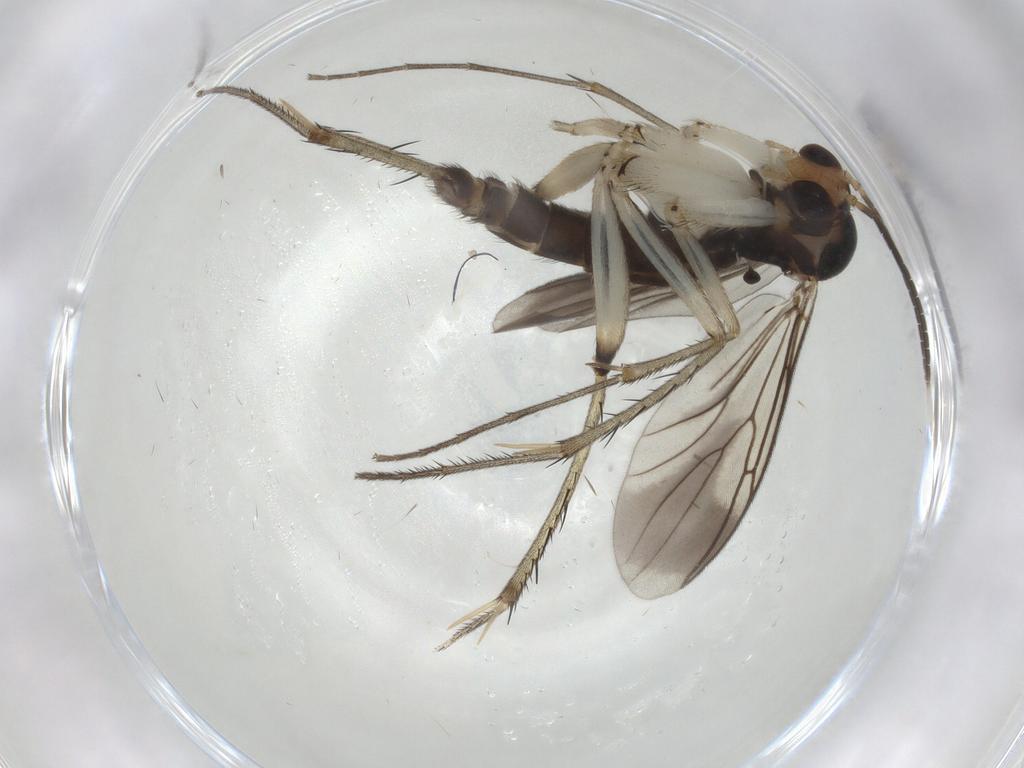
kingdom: Animalia
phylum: Arthropoda
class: Insecta
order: Diptera
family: Mycetophilidae
